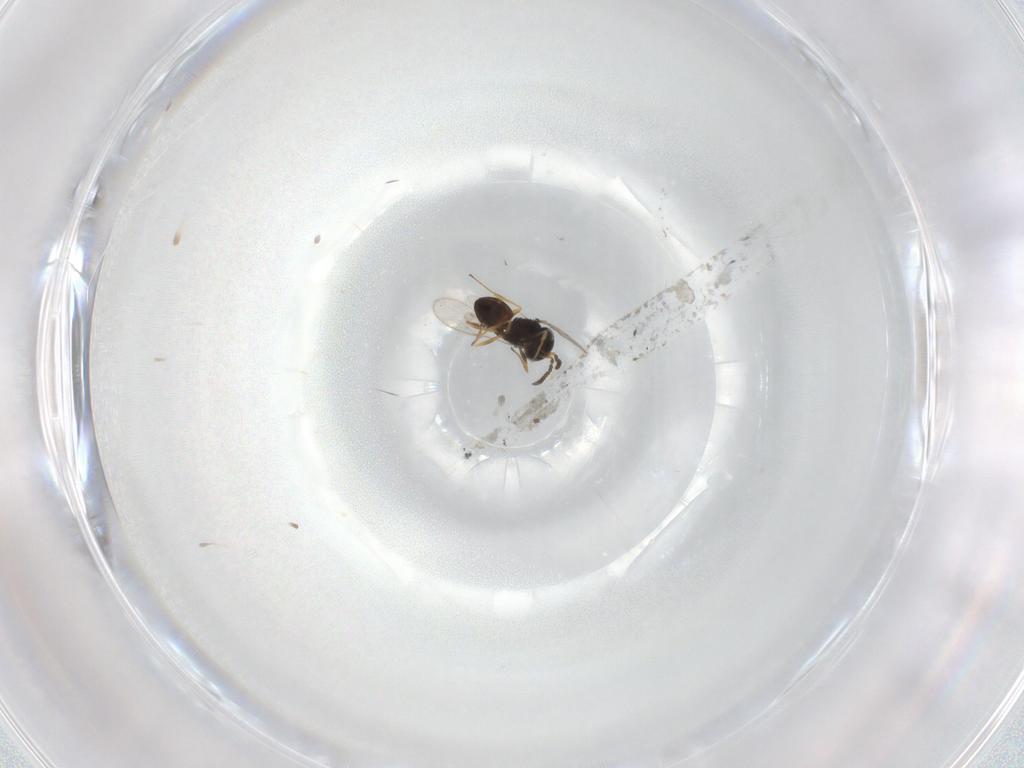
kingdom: Animalia
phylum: Arthropoda
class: Insecta
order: Hymenoptera
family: Scelionidae
